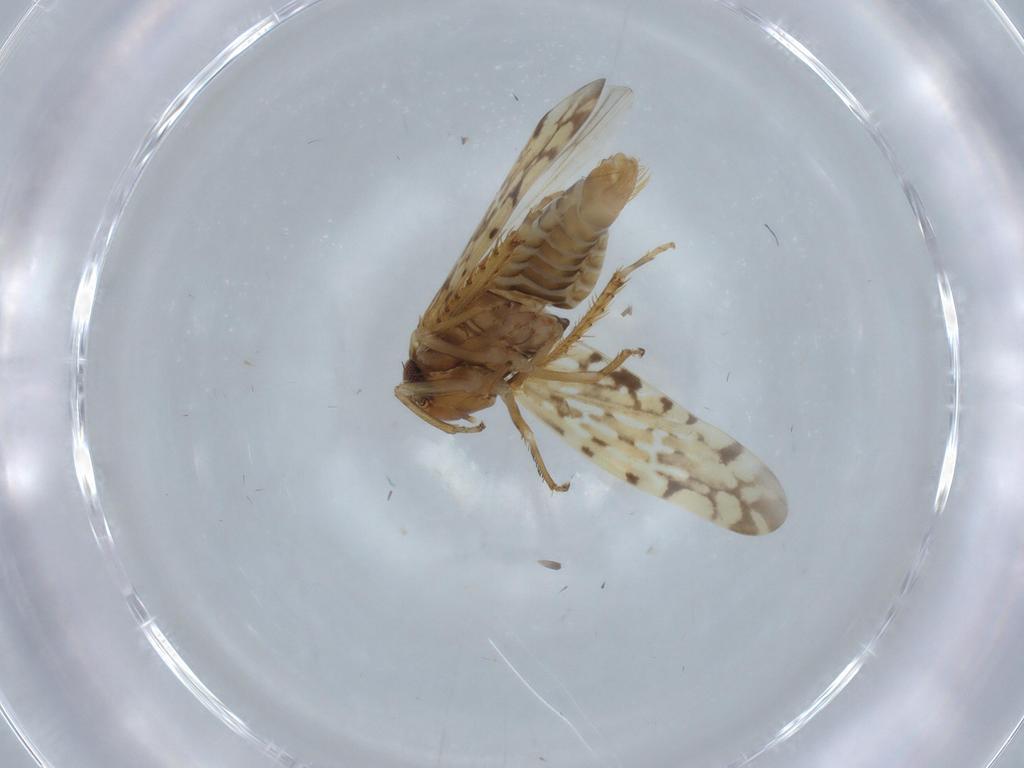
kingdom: Animalia
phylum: Arthropoda
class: Insecta
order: Hemiptera
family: Cicadellidae
